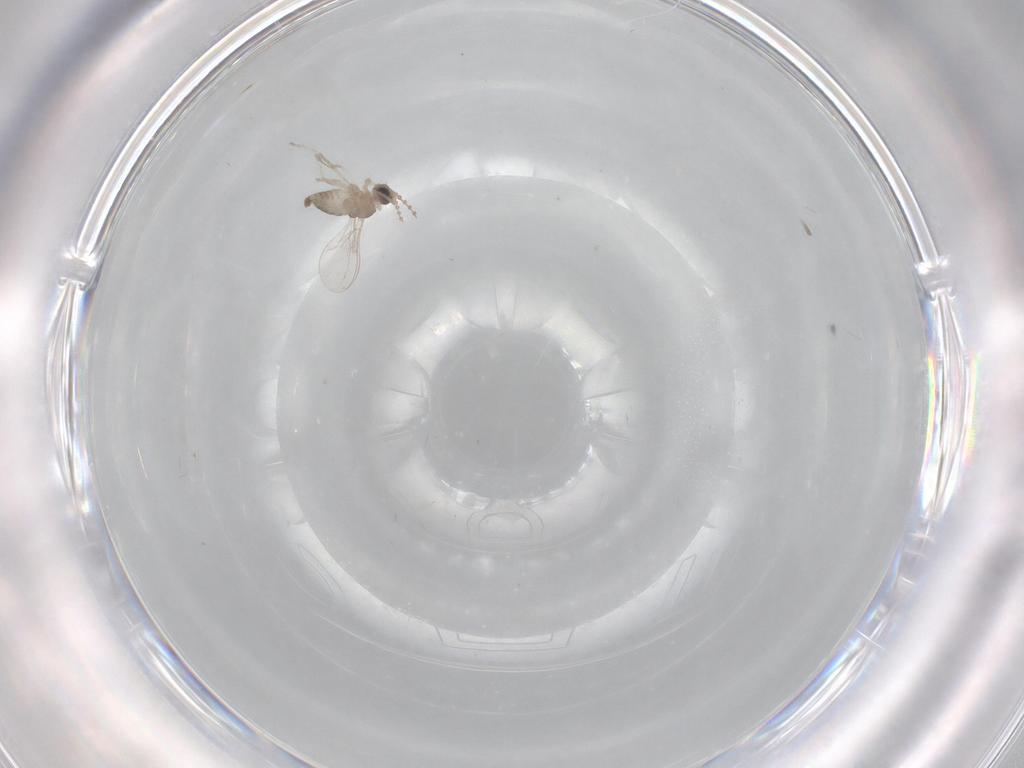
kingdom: Animalia
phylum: Arthropoda
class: Insecta
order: Diptera
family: Cecidomyiidae
